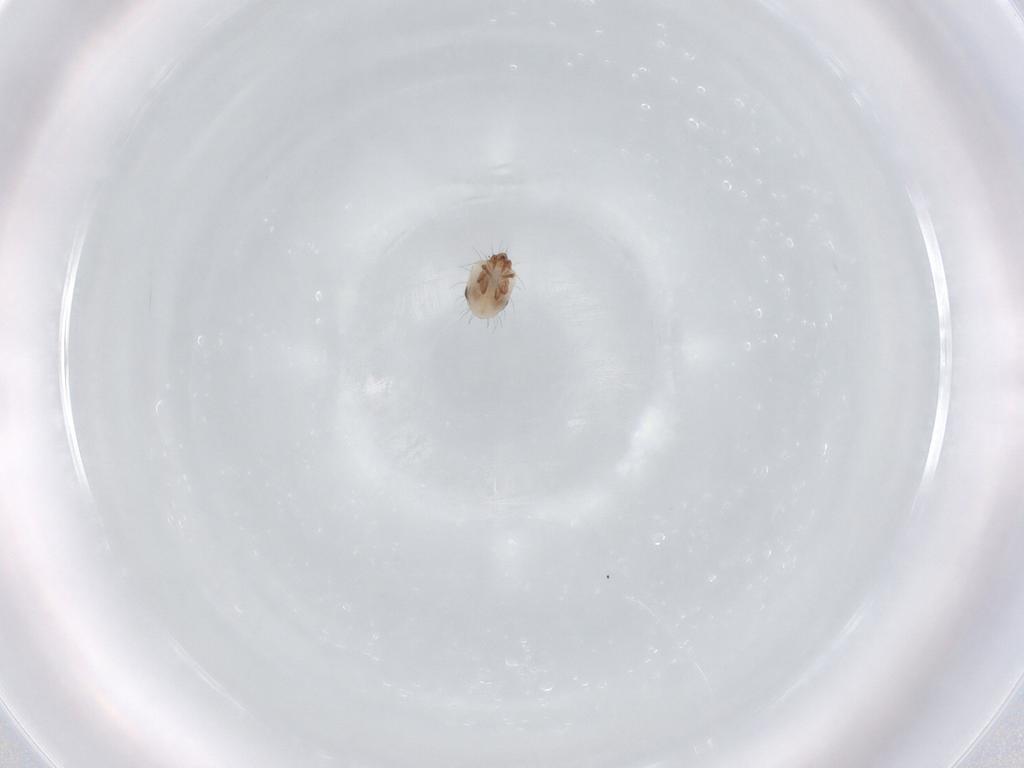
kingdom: Animalia
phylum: Arthropoda
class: Arachnida
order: Sarcoptiformes
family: Humerobatidae
